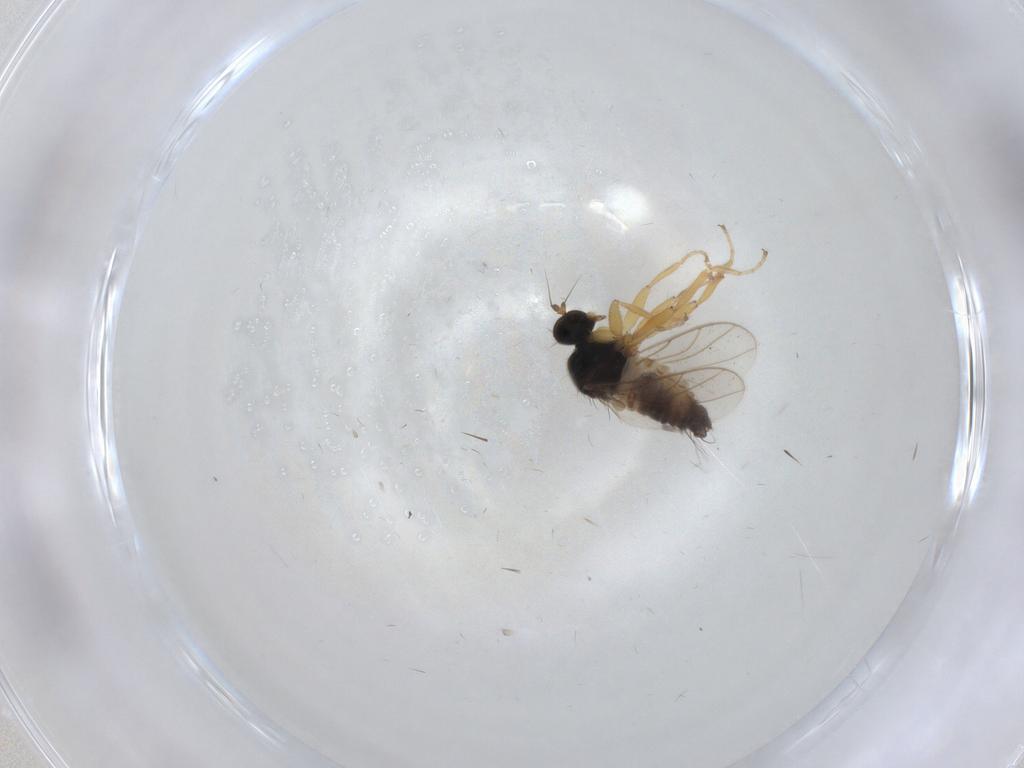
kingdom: Animalia
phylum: Arthropoda
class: Insecta
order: Diptera
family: Hybotidae
